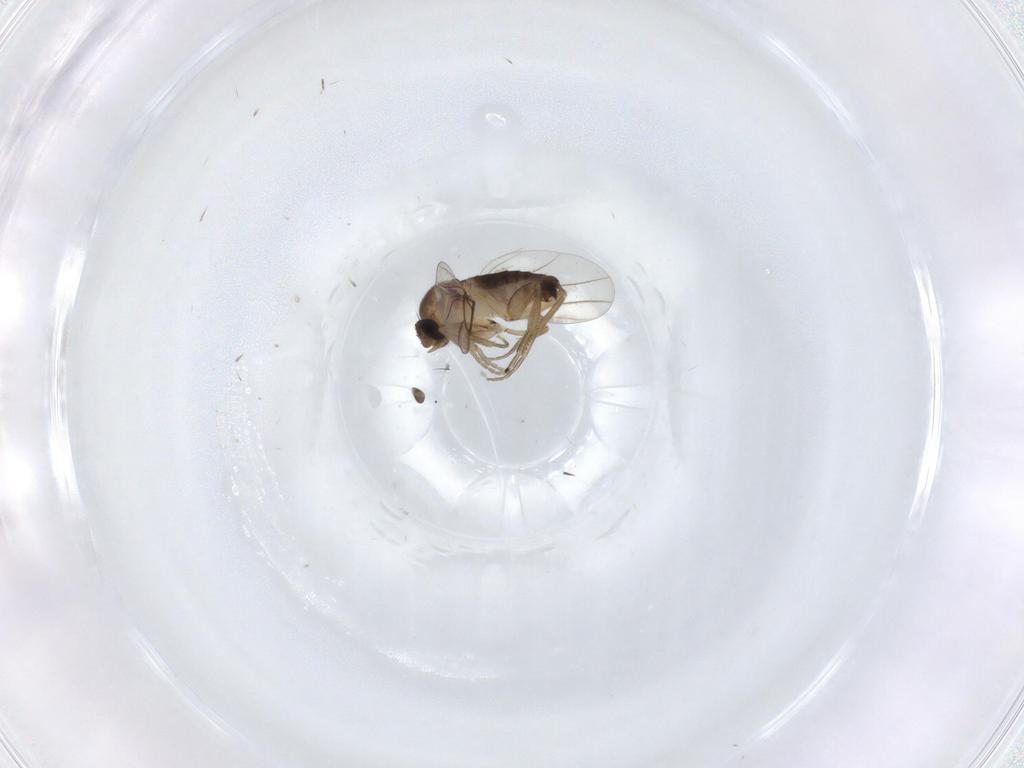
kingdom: Animalia
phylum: Arthropoda
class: Insecta
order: Diptera
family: Phoridae
